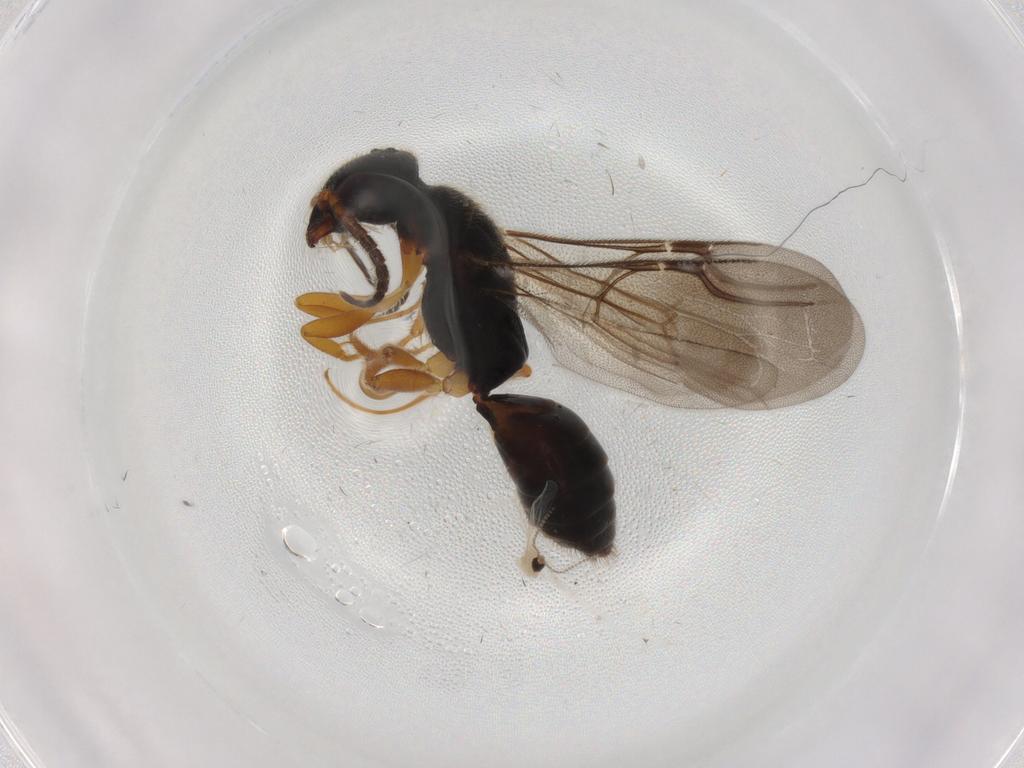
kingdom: Animalia
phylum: Arthropoda
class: Insecta
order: Hymenoptera
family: Bethylidae
